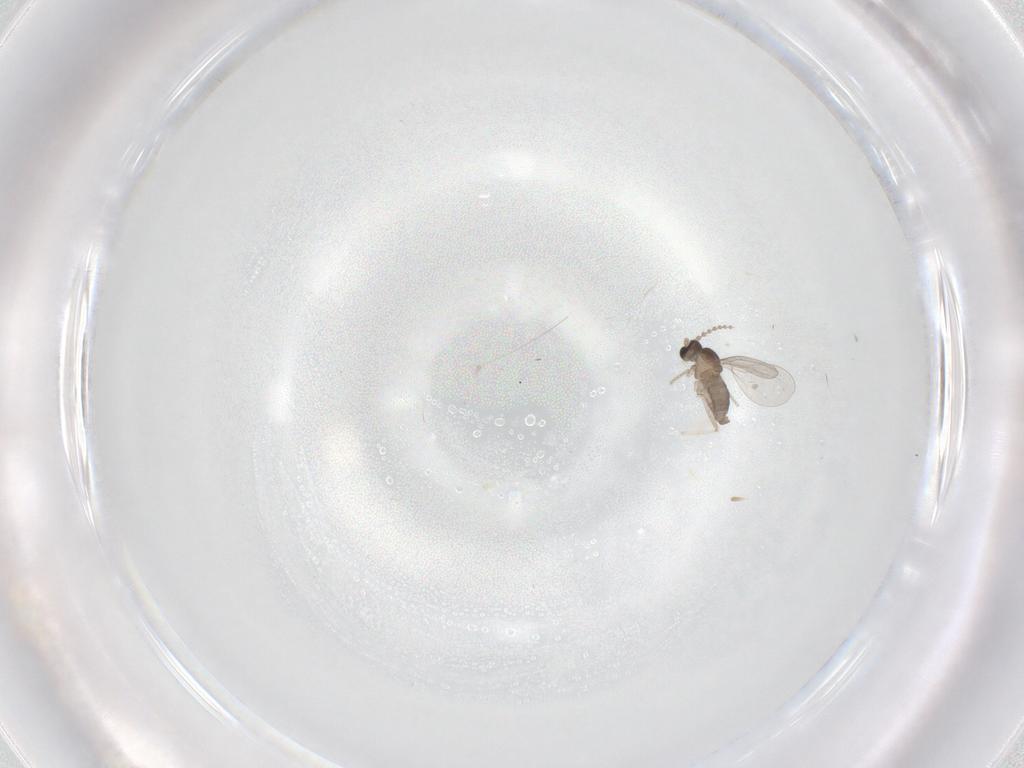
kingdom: Animalia
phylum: Arthropoda
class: Insecta
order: Diptera
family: Cecidomyiidae
